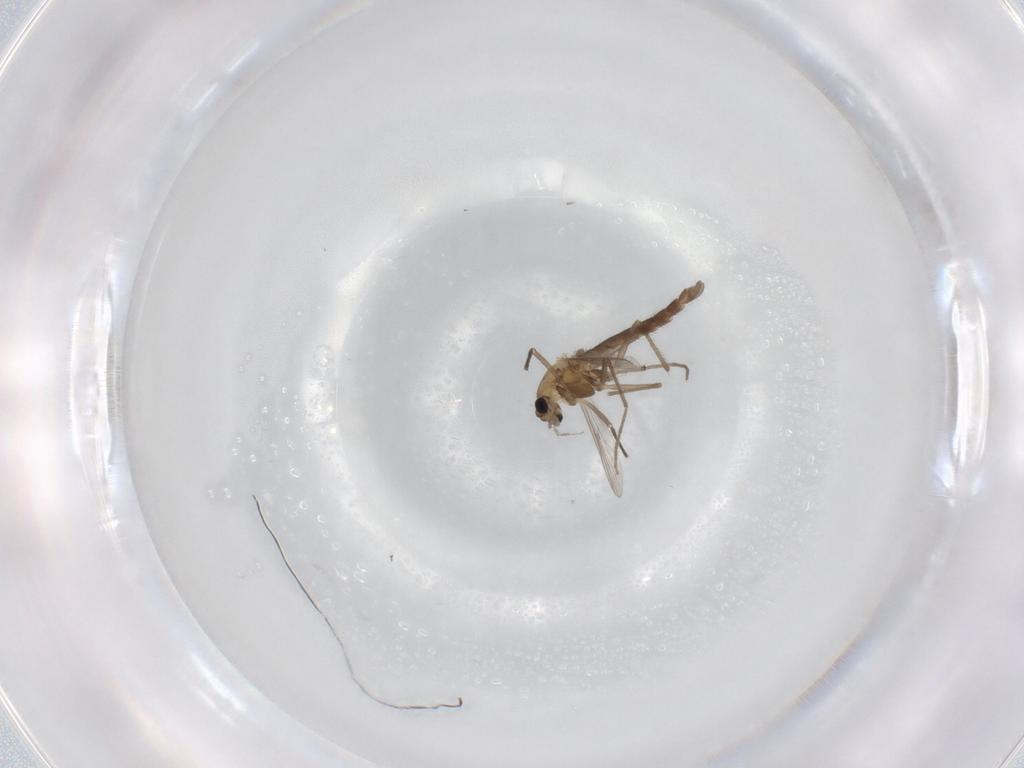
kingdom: Animalia
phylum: Arthropoda
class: Insecta
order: Diptera
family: Chironomidae
